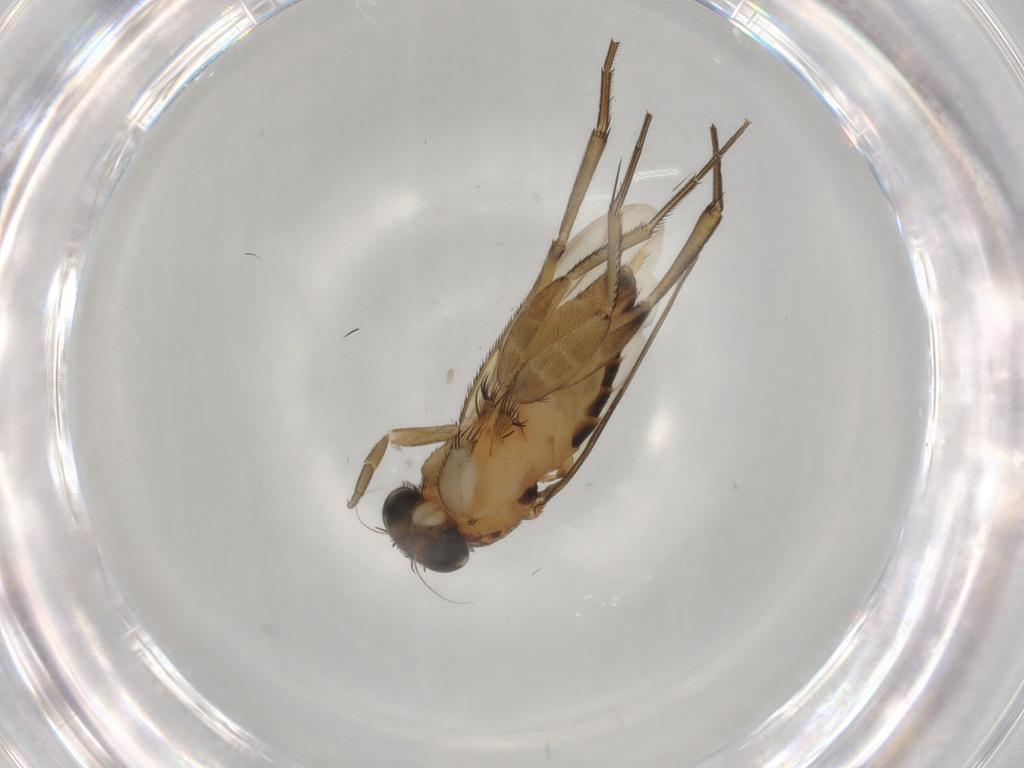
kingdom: Animalia
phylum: Arthropoda
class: Insecta
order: Diptera
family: Phoridae
